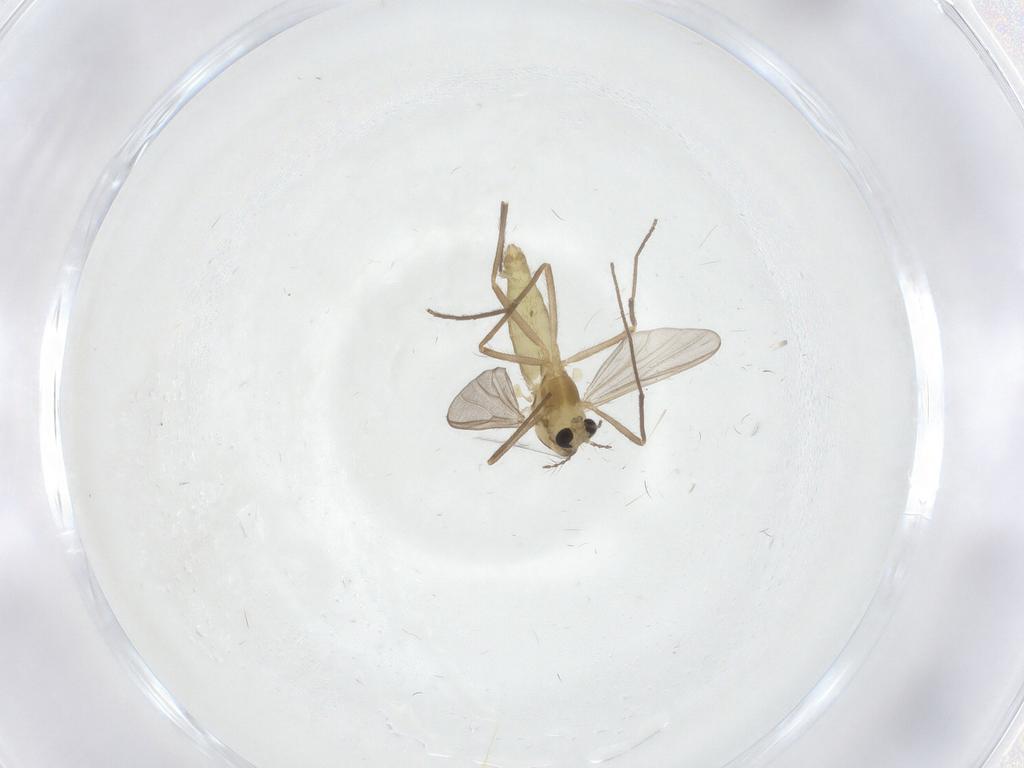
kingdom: Animalia
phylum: Arthropoda
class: Insecta
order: Diptera
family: Chironomidae
